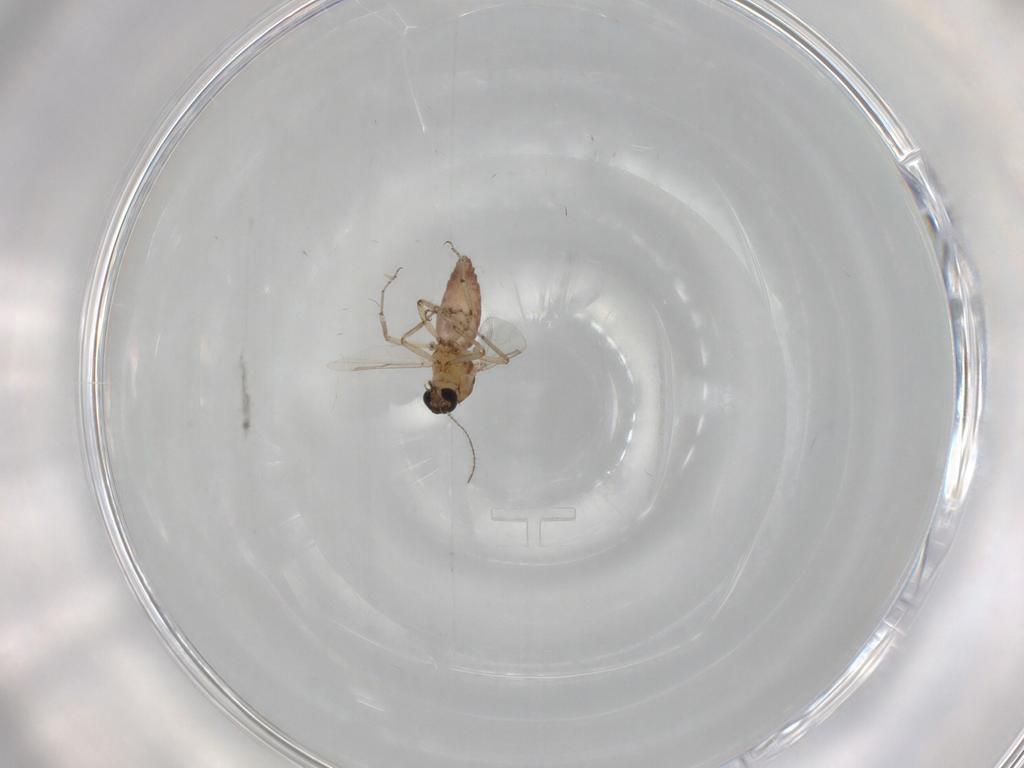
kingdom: Animalia
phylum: Arthropoda
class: Insecta
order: Diptera
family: Ceratopogonidae
